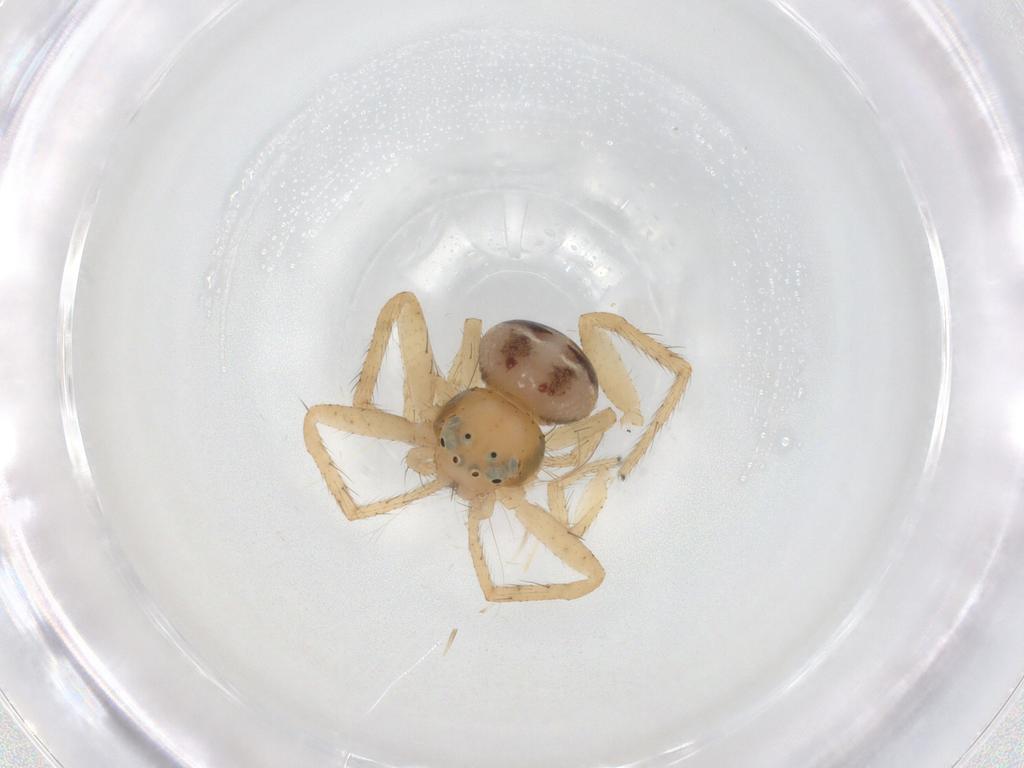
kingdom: Animalia
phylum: Arthropoda
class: Arachnida
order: Araneae
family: Thomisidae
